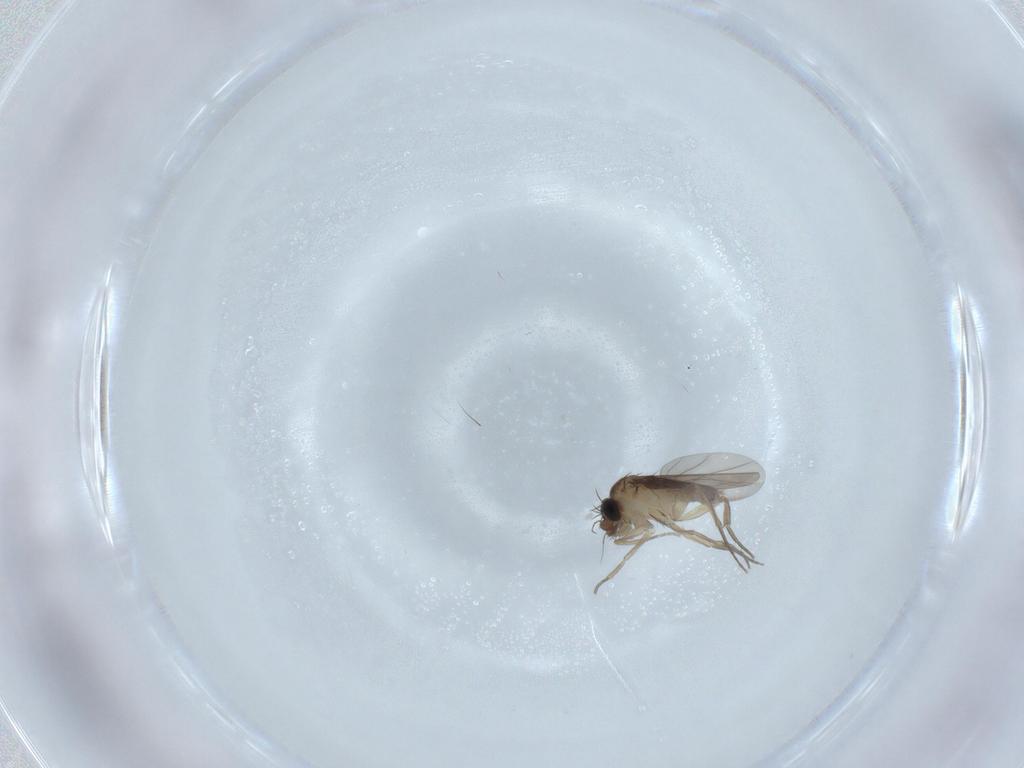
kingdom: Animalia
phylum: Arthropoda
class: Insecta
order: Diptera
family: Phoridae
